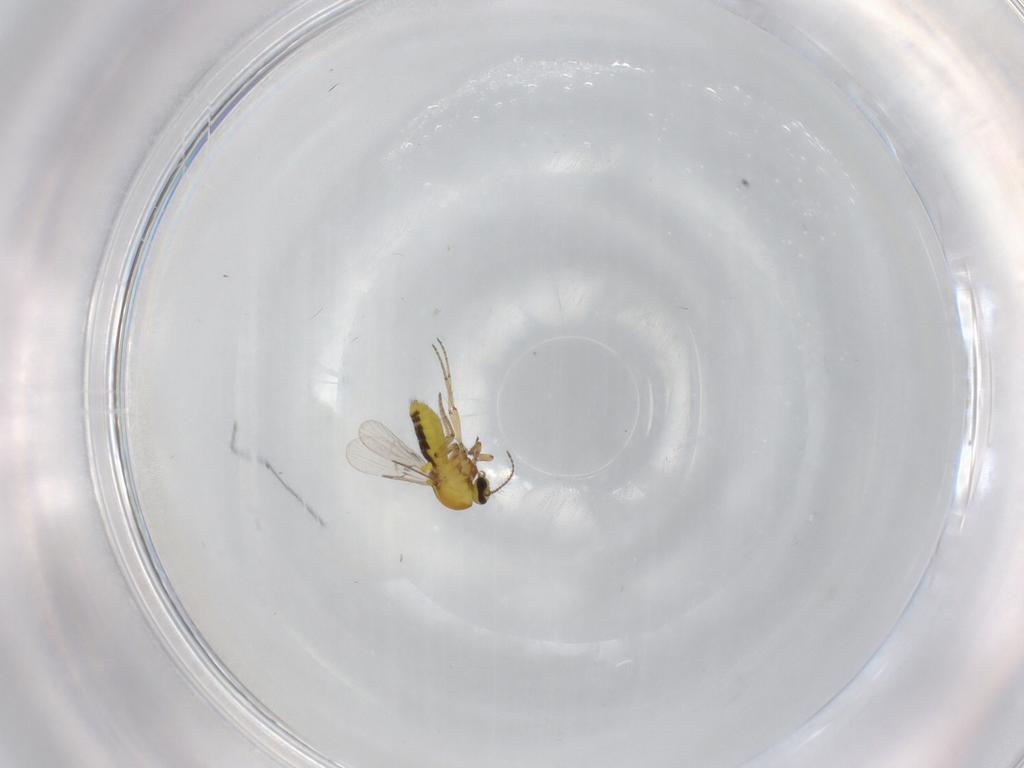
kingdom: Animalia
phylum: Arthropoda
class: Insecta
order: Diptera
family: Cecidomyiidae
